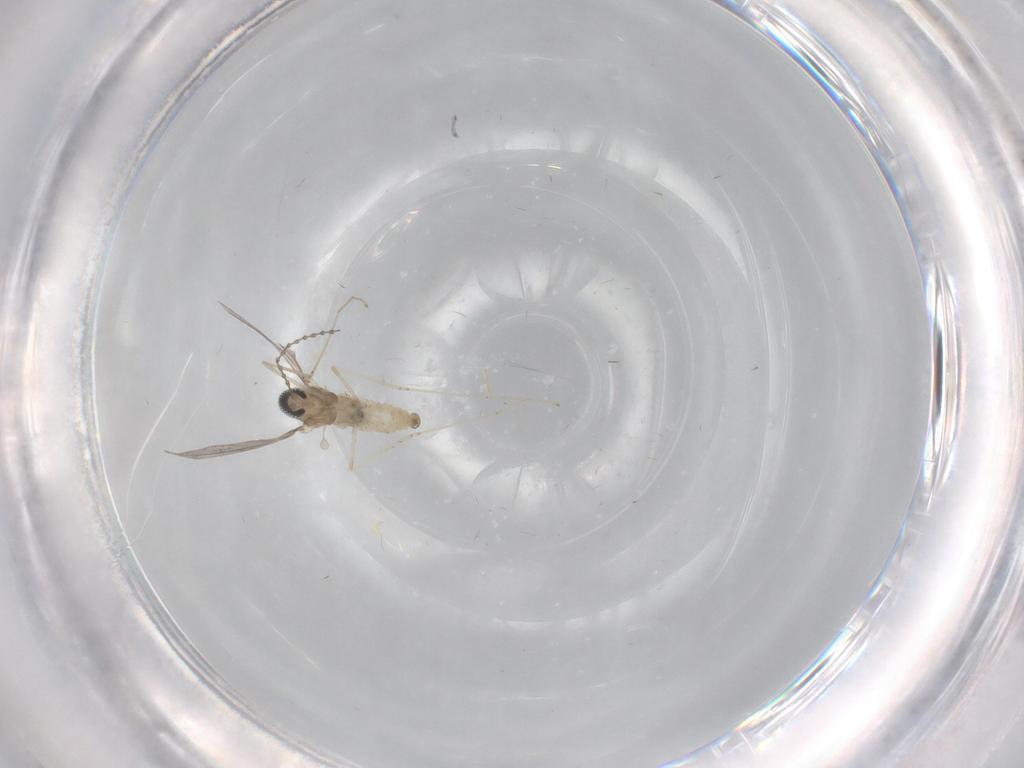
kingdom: Animalia
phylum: Arthropoda
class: Insecta
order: Diptera
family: Cecidomyiidae
